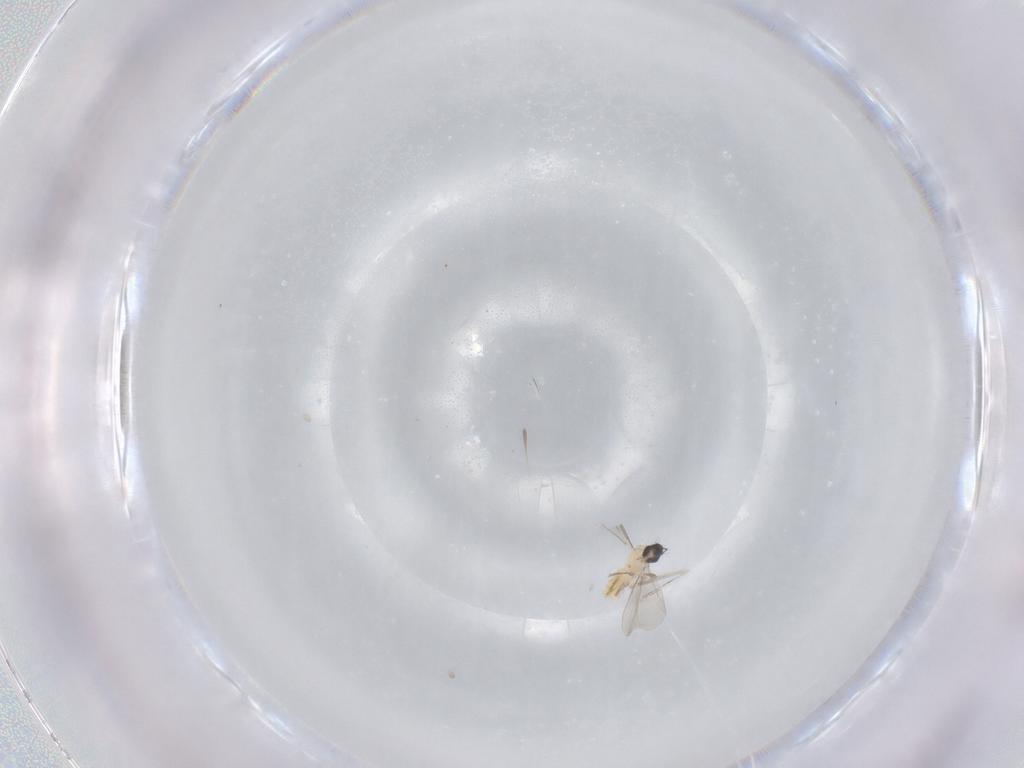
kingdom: Animalia
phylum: Arthropoda
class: Insecta
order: Diptera
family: Cecidomyiidae
